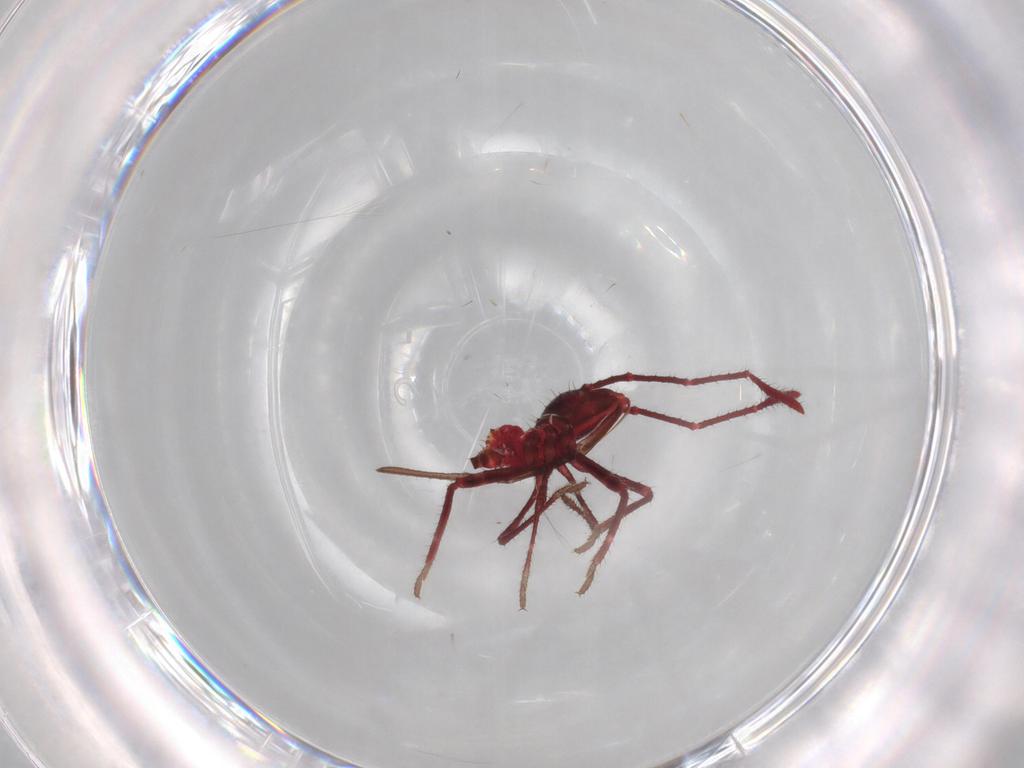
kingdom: Animalia
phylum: Arthropoda
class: Insecta
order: Hemiptera
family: Coreidae
